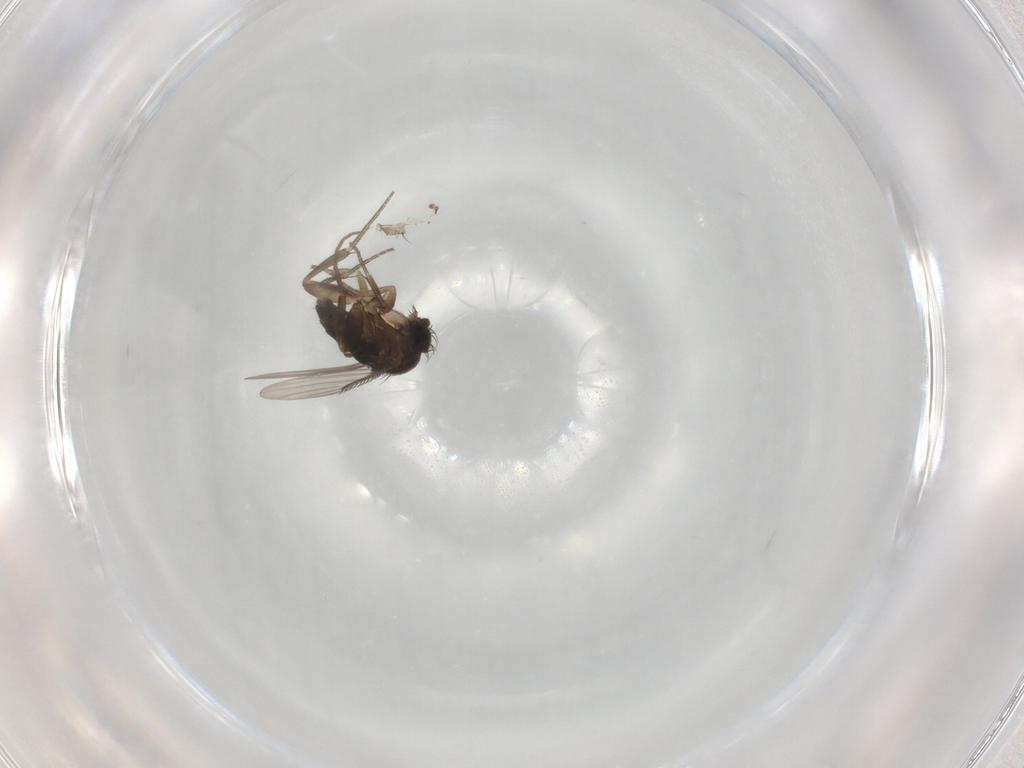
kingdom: Animalia
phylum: Arthropoda
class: Insecta
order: Diptera
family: Phoridae
